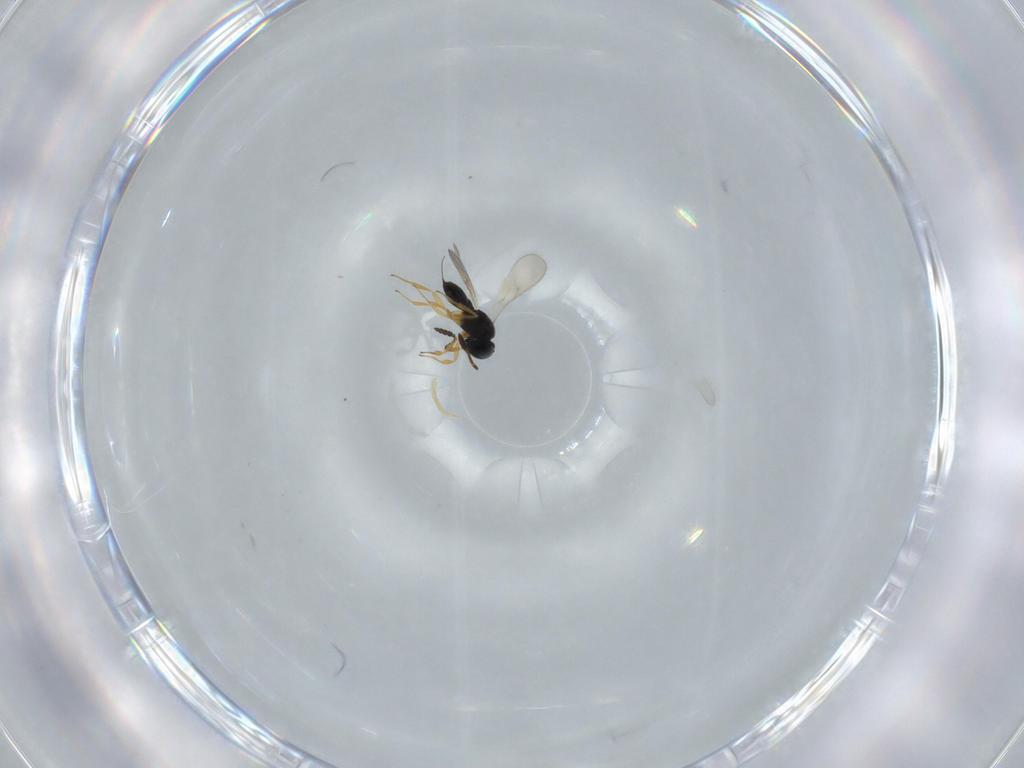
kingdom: Animalia
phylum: Arthropoda
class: Insecta
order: Hymenoptera
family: Scelionidae
